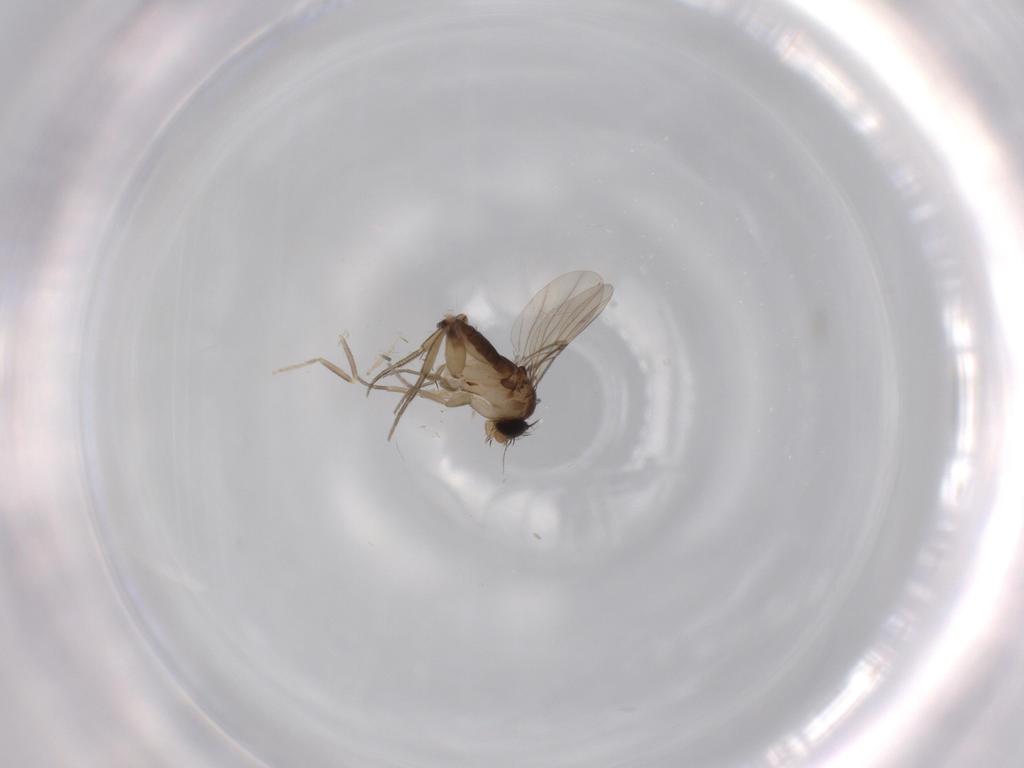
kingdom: Animalia
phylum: Arthropoda
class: Insecta
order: Diptera
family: Phoridae
